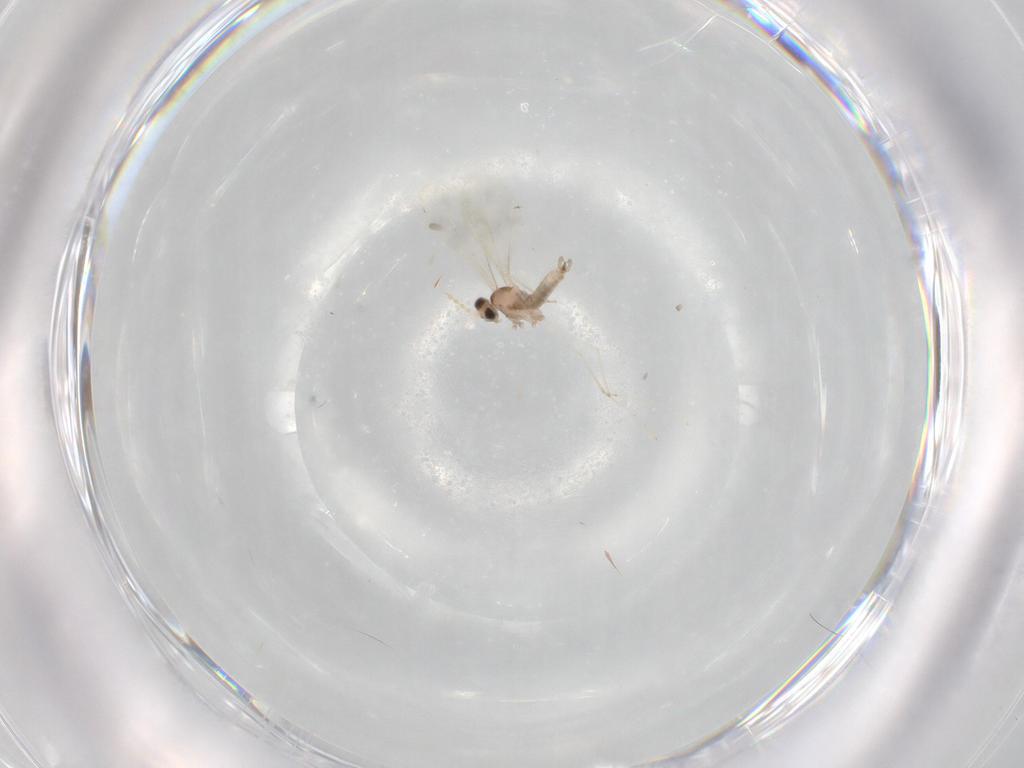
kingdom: Animalia
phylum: Arthropoda
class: Insecta
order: Diptera
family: Cecidomyiidae
